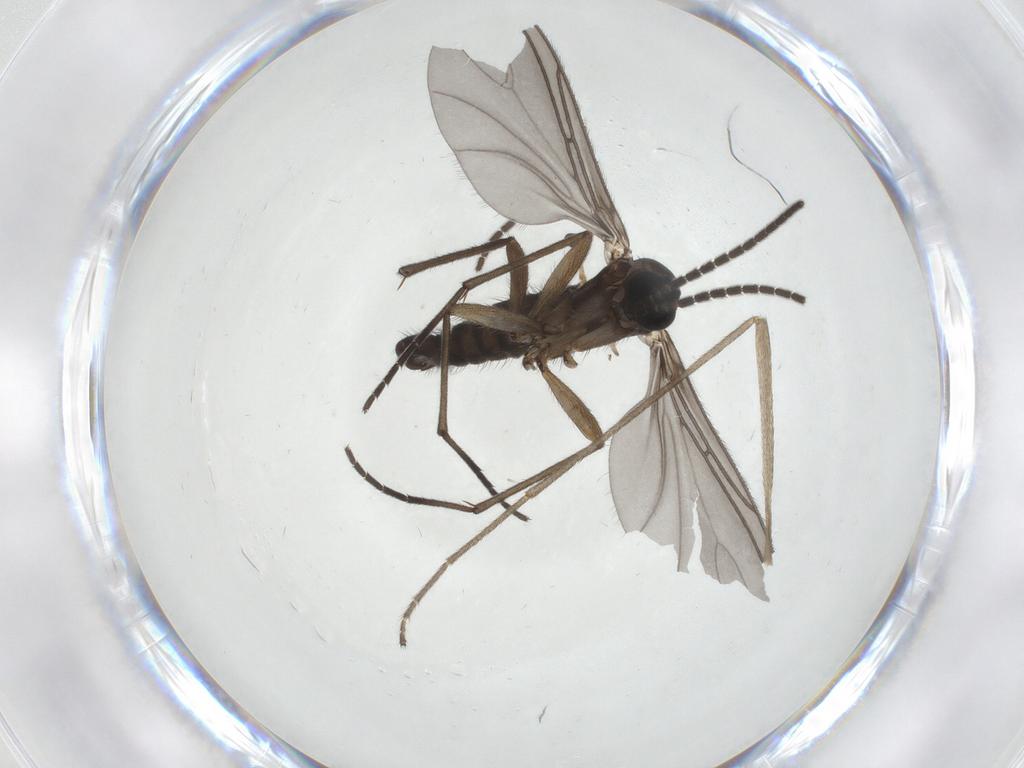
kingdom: Animalia
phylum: Arthropoda
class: Insecta
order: Diptera
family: Sciaridae
